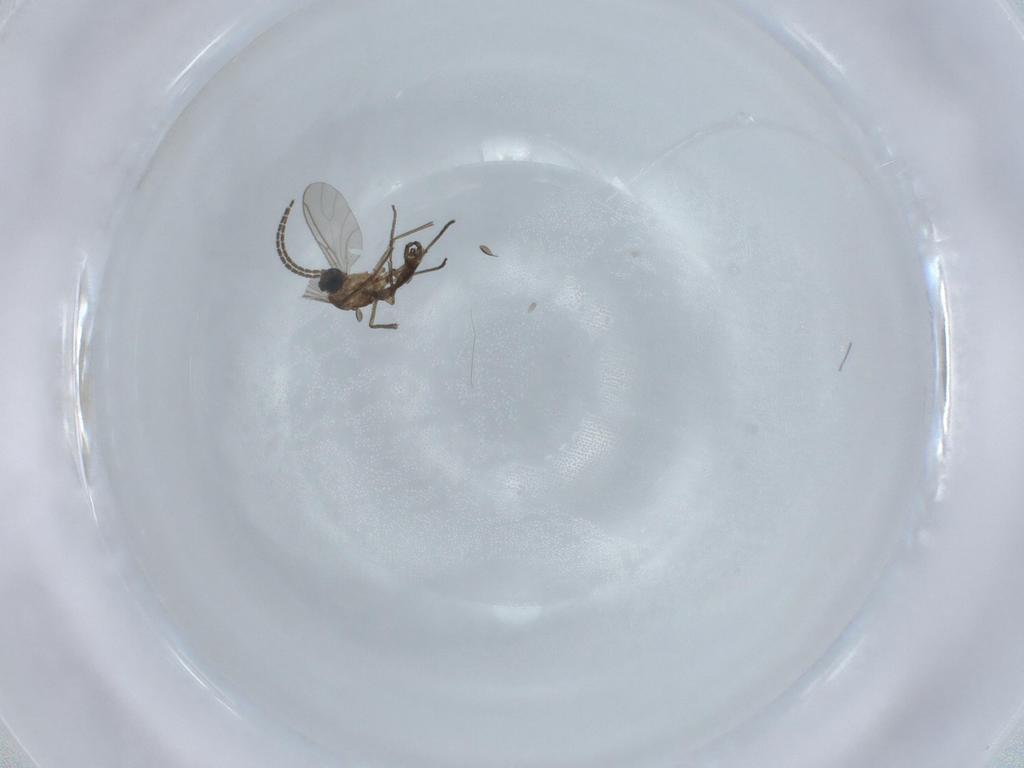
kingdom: Animalia
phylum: Arthropoda
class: Insecta
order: Diptera
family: Sciaridae
